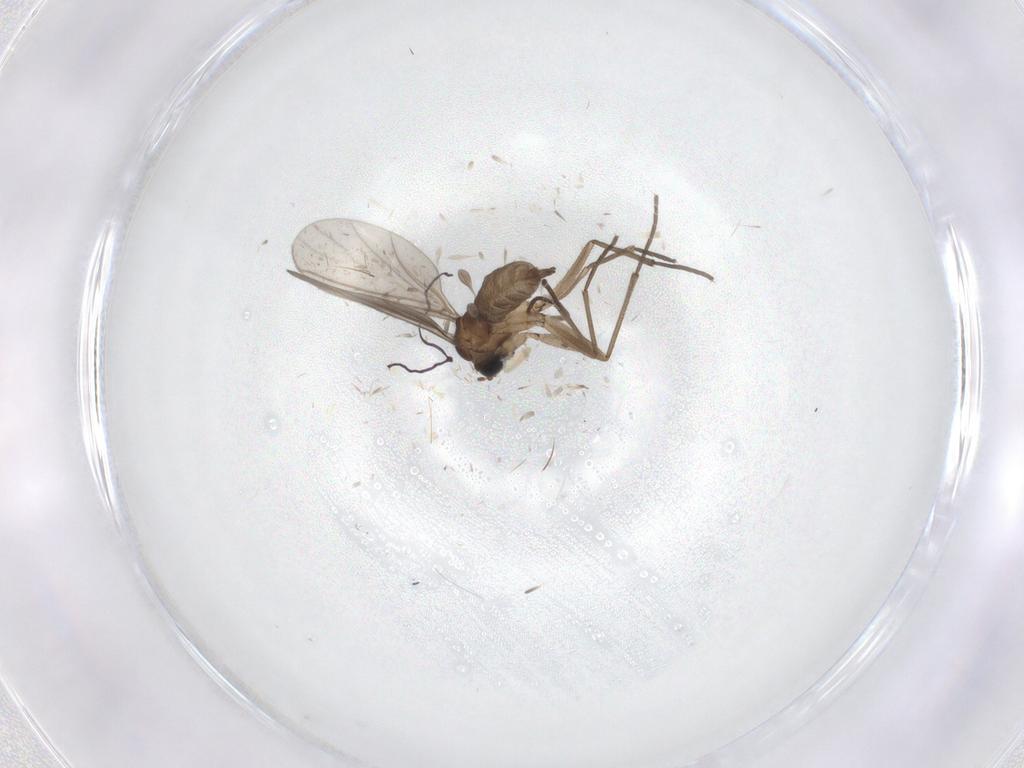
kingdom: Animalia
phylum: Arthropoda
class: Insecta
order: Diptera
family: Sciaridae
